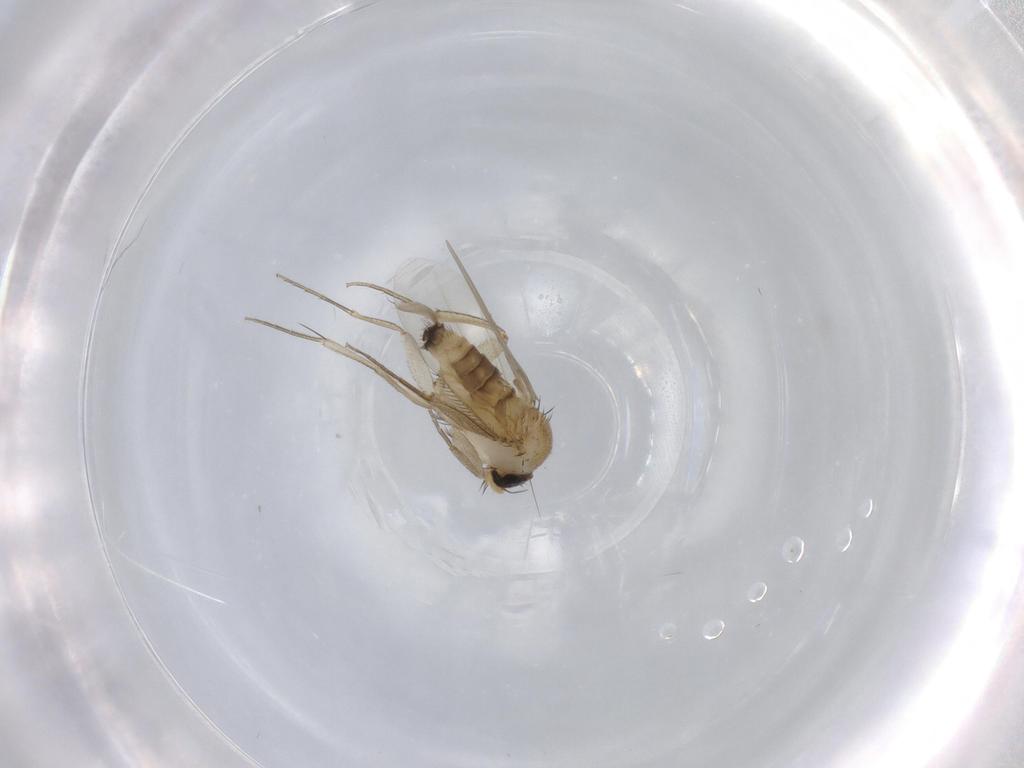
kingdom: Animalia
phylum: Arthropoda
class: Insecta
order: Diptera
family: Phoridae
